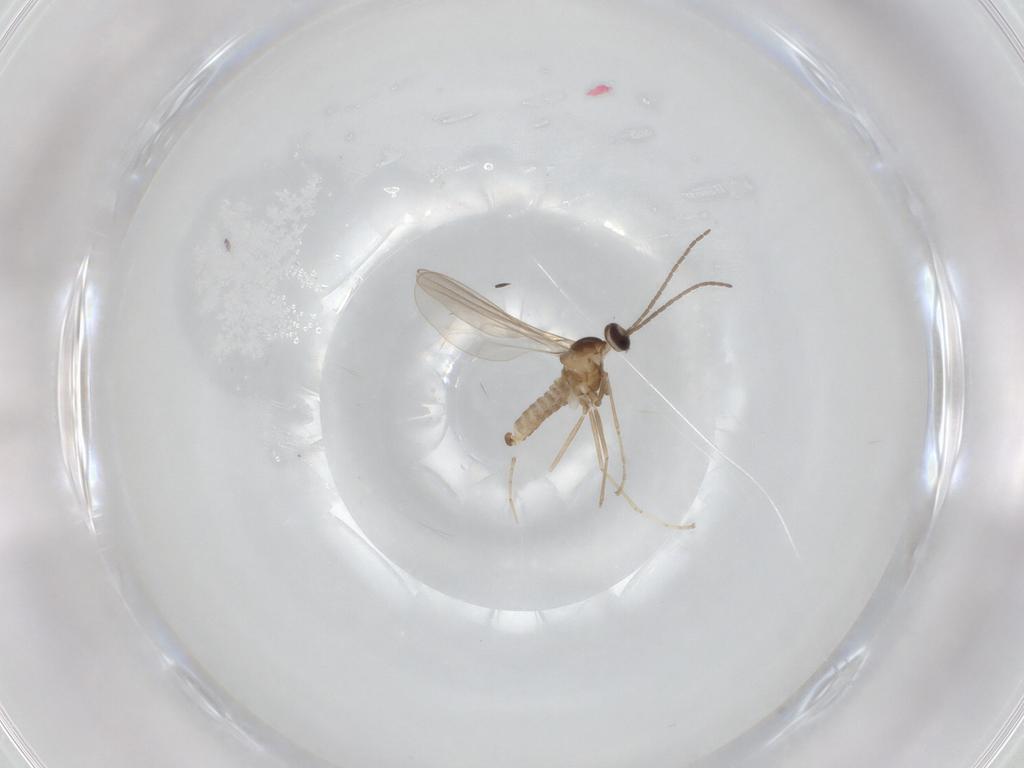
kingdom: Animalia
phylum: Arthropoda
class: Insecta
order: Diptera
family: Cecidomyiidae
